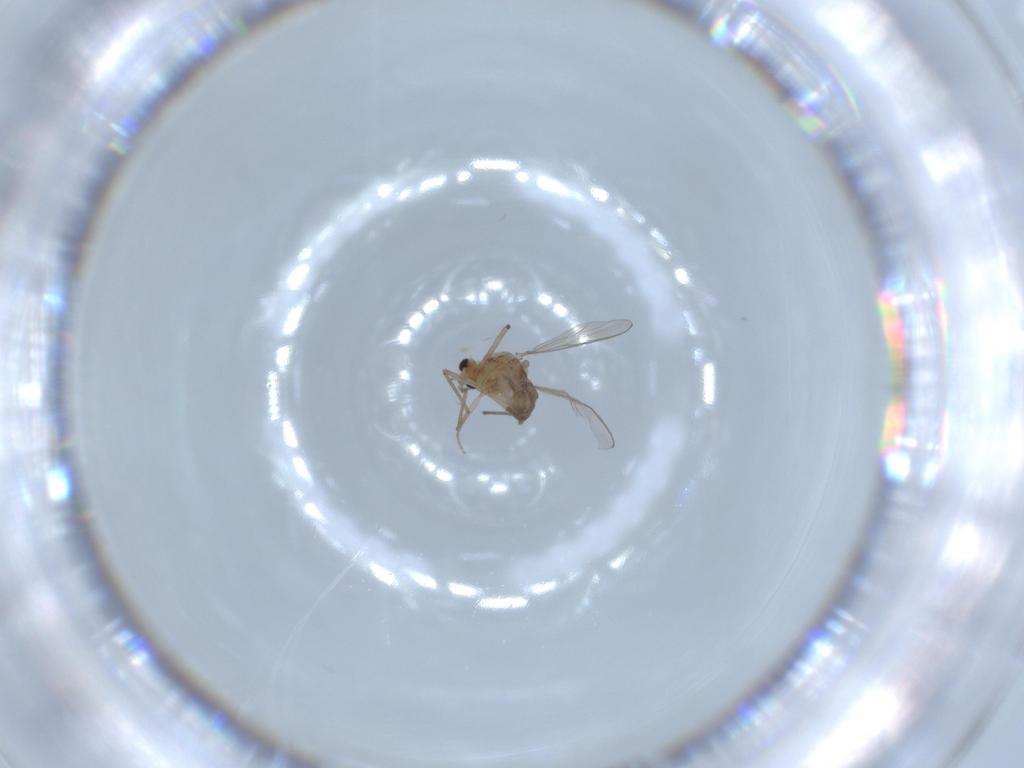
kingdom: Animalia
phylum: Arthropoda
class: Insecta
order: Diptera
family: Chironomidae
